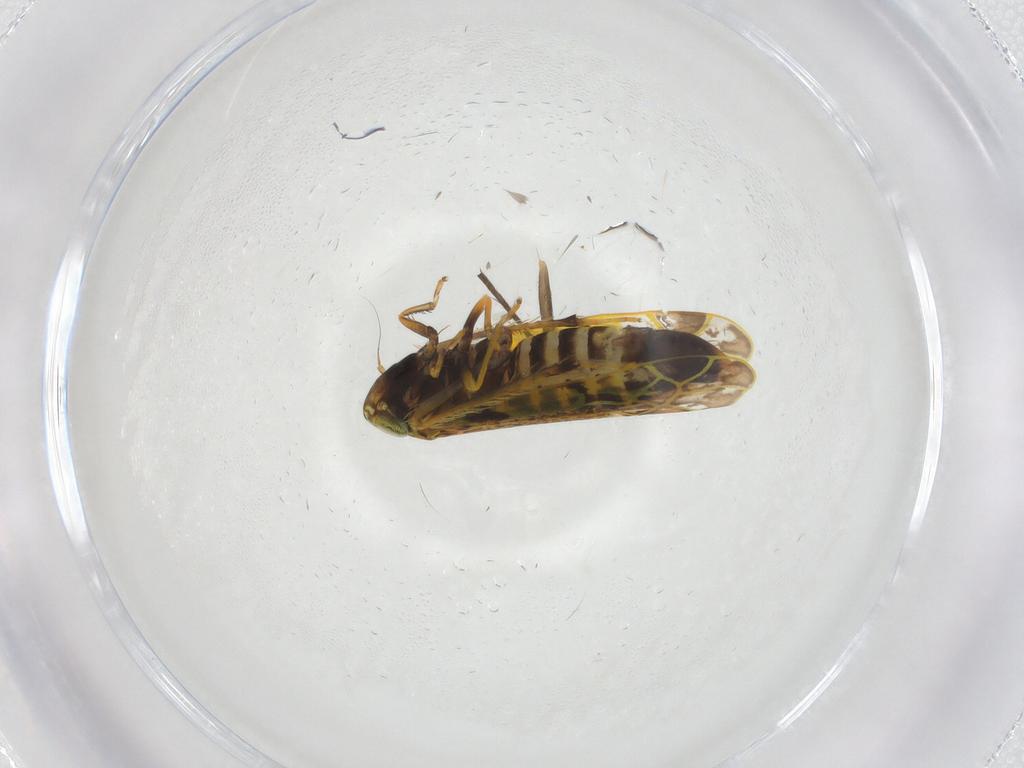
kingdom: Animalia
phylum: Arthropoda
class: Insecta
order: Hemiptera
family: Cicadellidae
